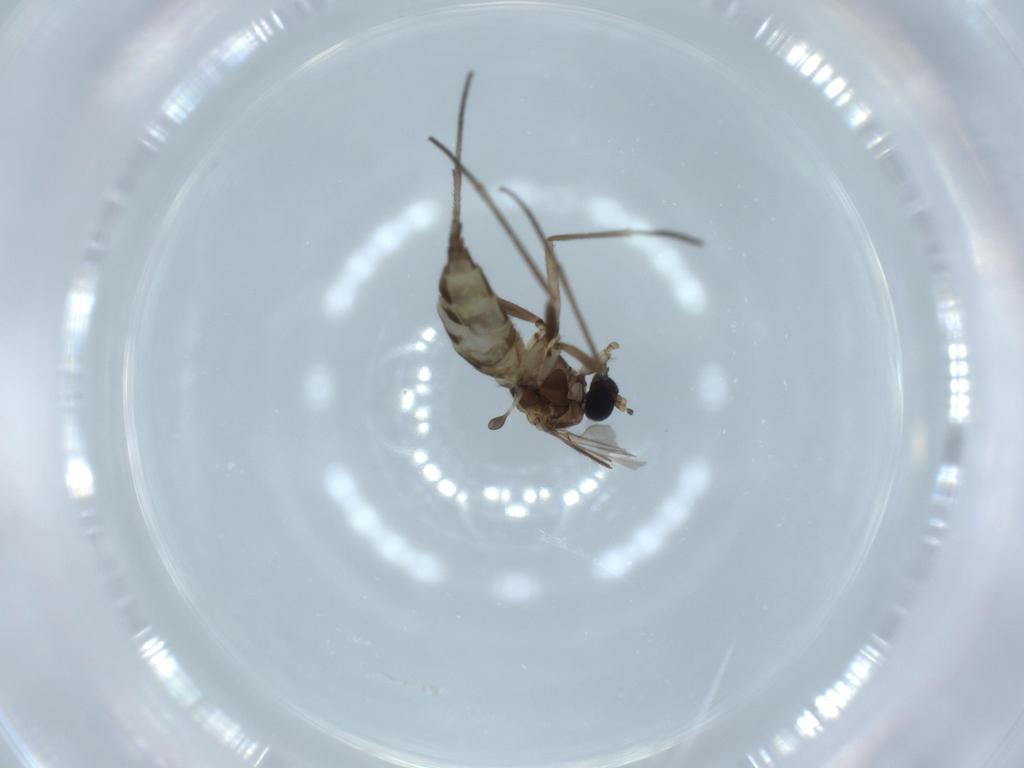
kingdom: Animalia
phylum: Arthropoda
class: Insecta
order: Diptera
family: Sciaridae
